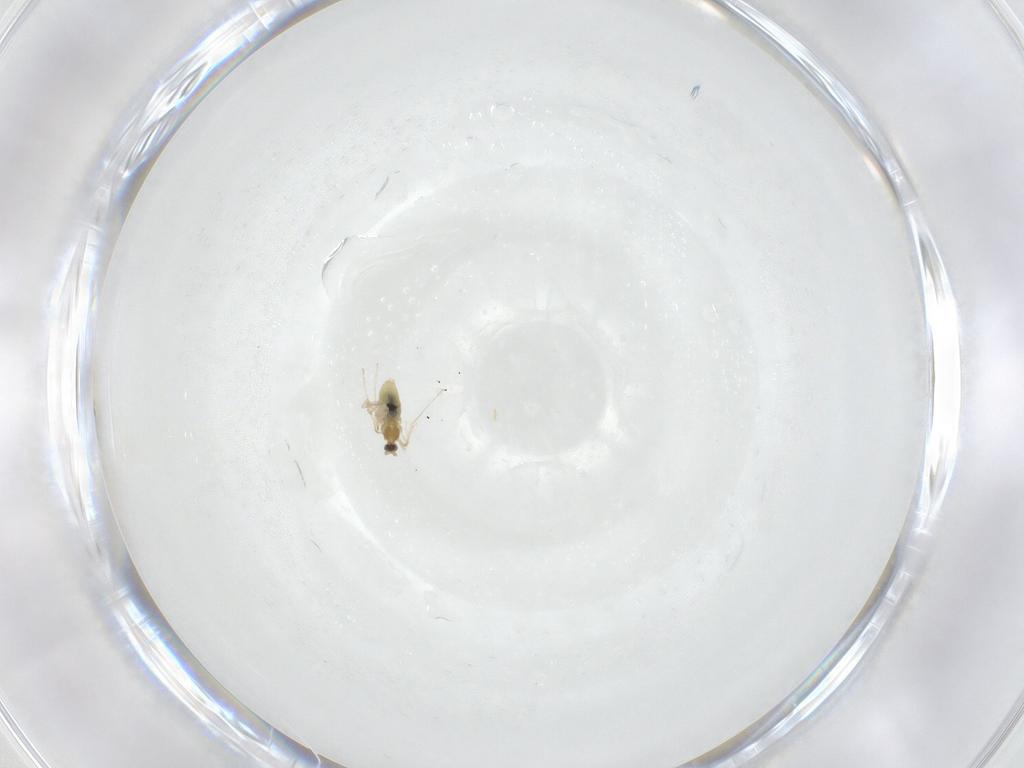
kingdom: Animalia
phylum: Arthropoda
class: Insecta
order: Diptera
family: Cecidomyiidae
